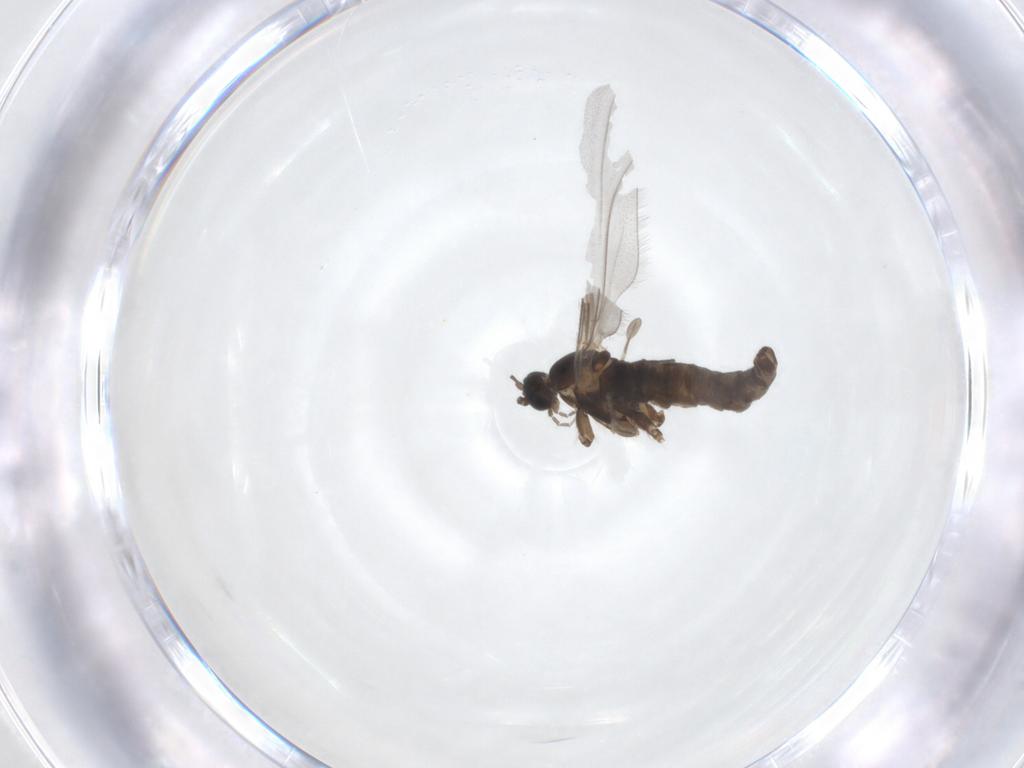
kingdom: Animalia
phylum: Arthropoda
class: Insecta
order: Diptera
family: Cecidomyiidae
